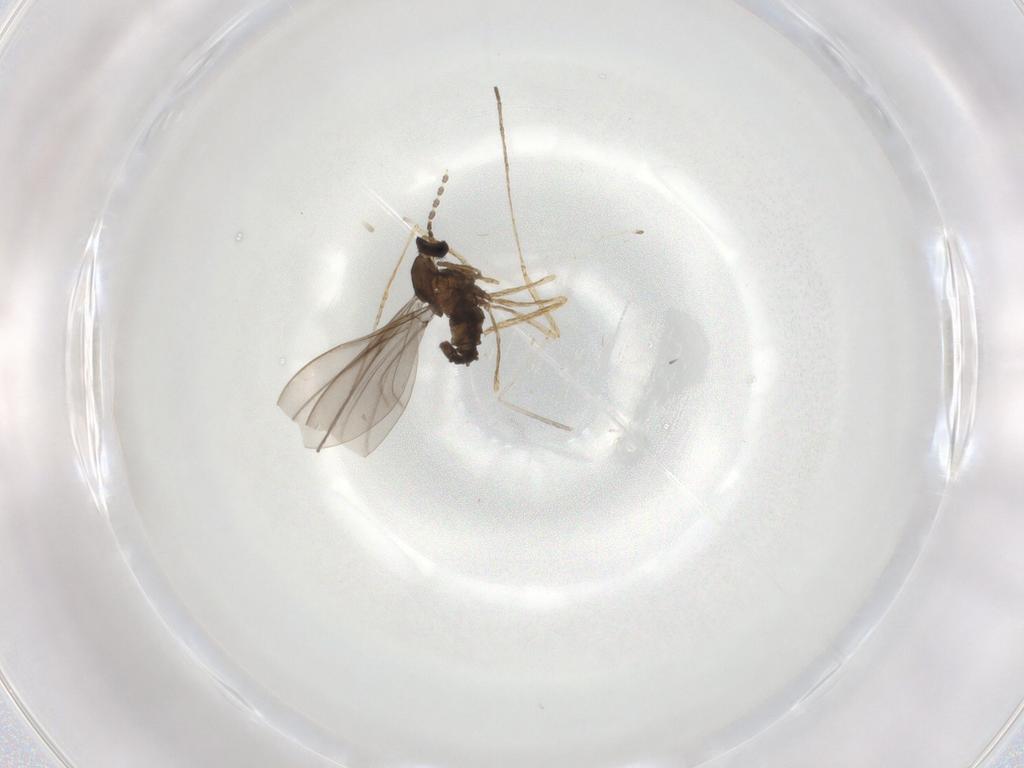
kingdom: Animalia
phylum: Arthropoda
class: Insecta
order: Diptera
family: Cecidomyiidae
